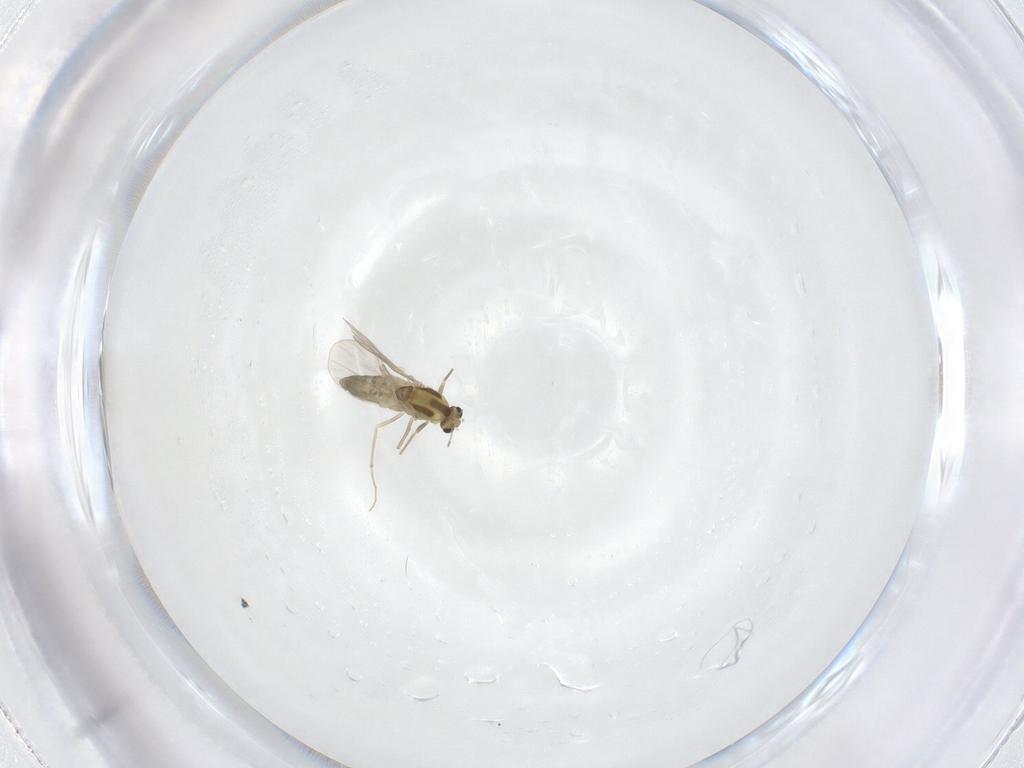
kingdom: Animalia
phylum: Arthropoda
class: Insecta
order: Diptera
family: Chironomidae
